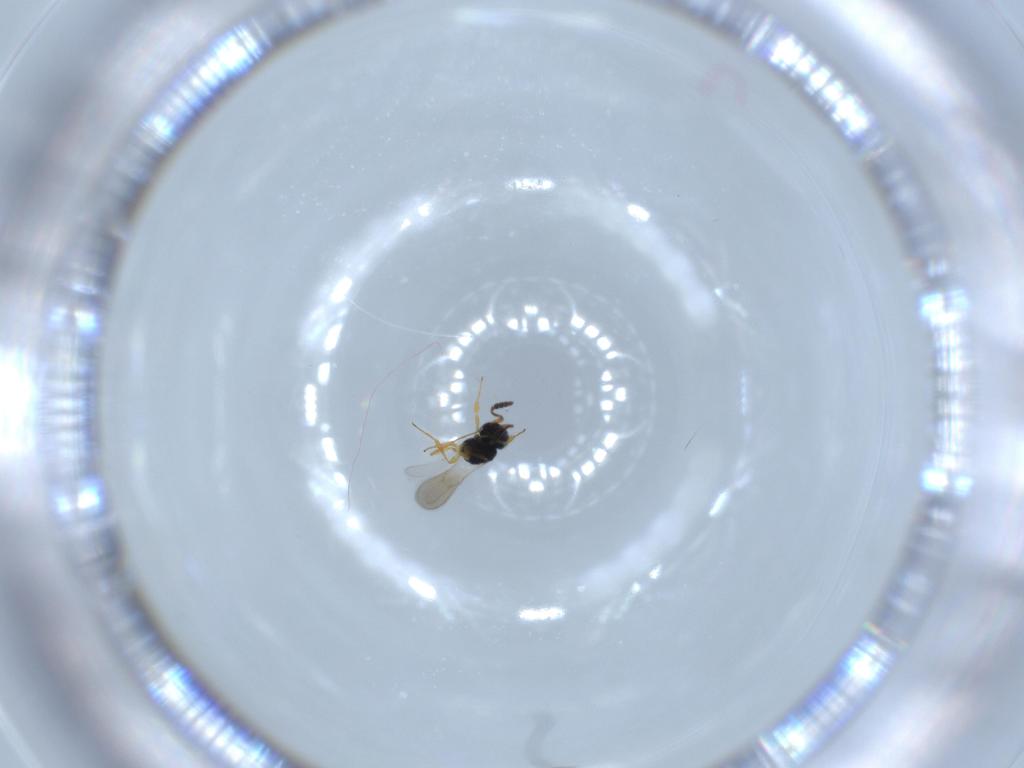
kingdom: Animalia
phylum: Arthropoda
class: Insecta
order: Hymenoptera
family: Scelionidae
